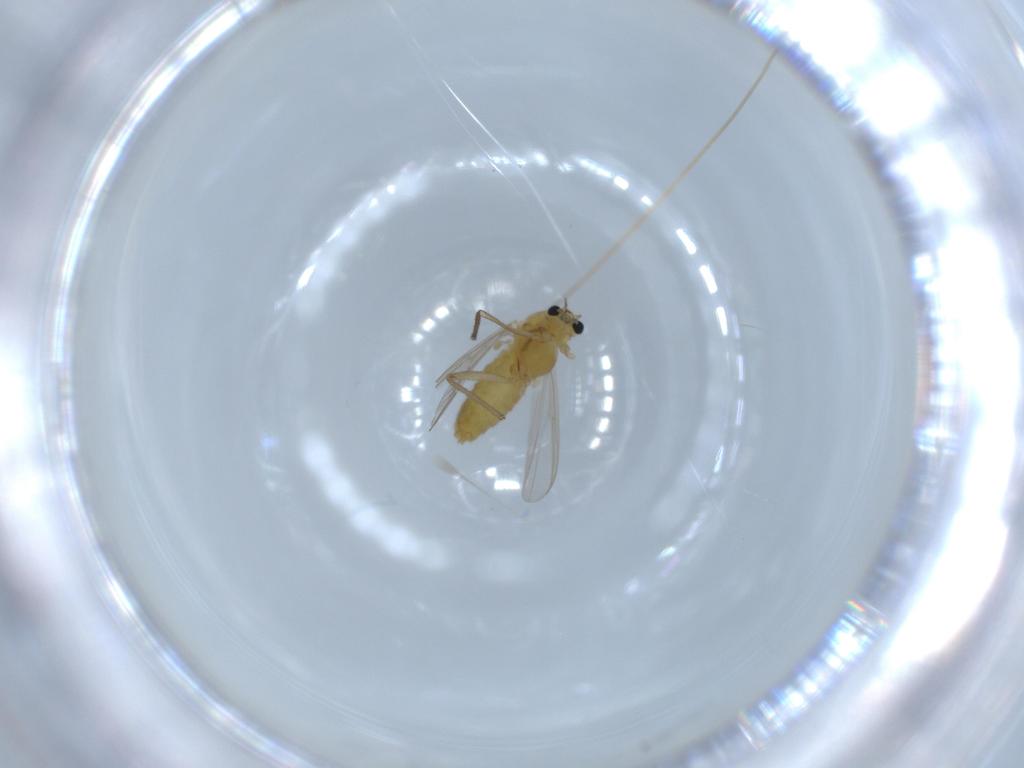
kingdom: Animalia
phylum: Arthropoda
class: Insecta
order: Diptera
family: Chironomidae
